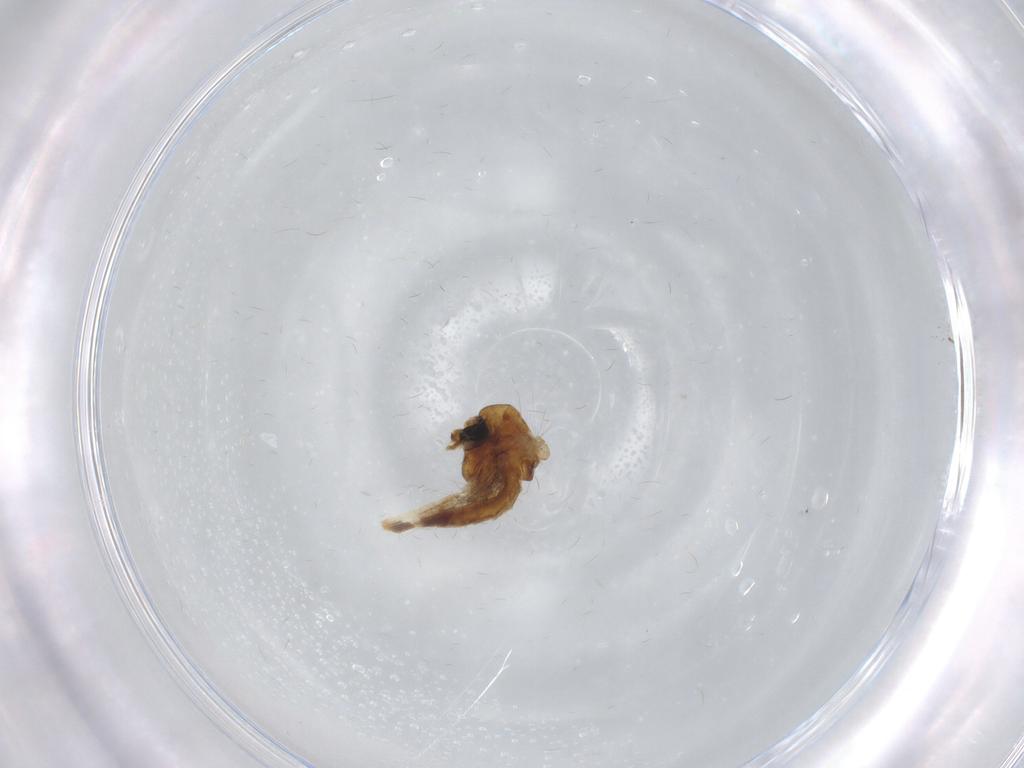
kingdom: Animalia
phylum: Arthropoda
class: Insecta
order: Diptera
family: Chironomidae
